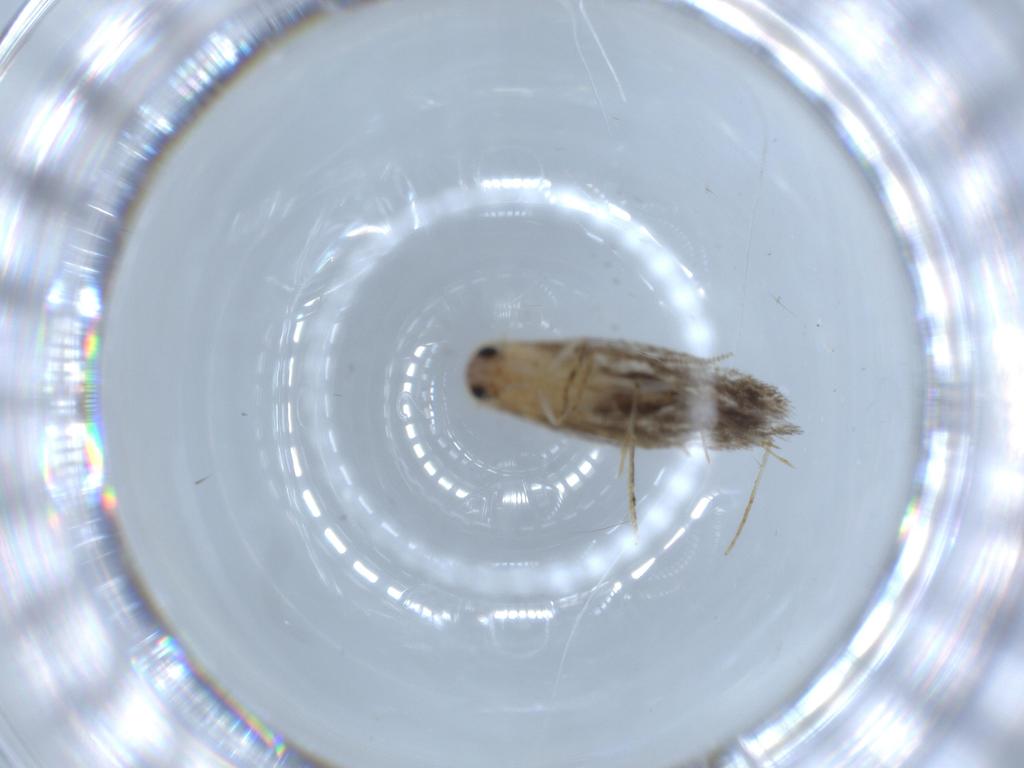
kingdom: Animalia
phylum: Arthropoda
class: Insecta
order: Lepidoptera
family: Tineidae
